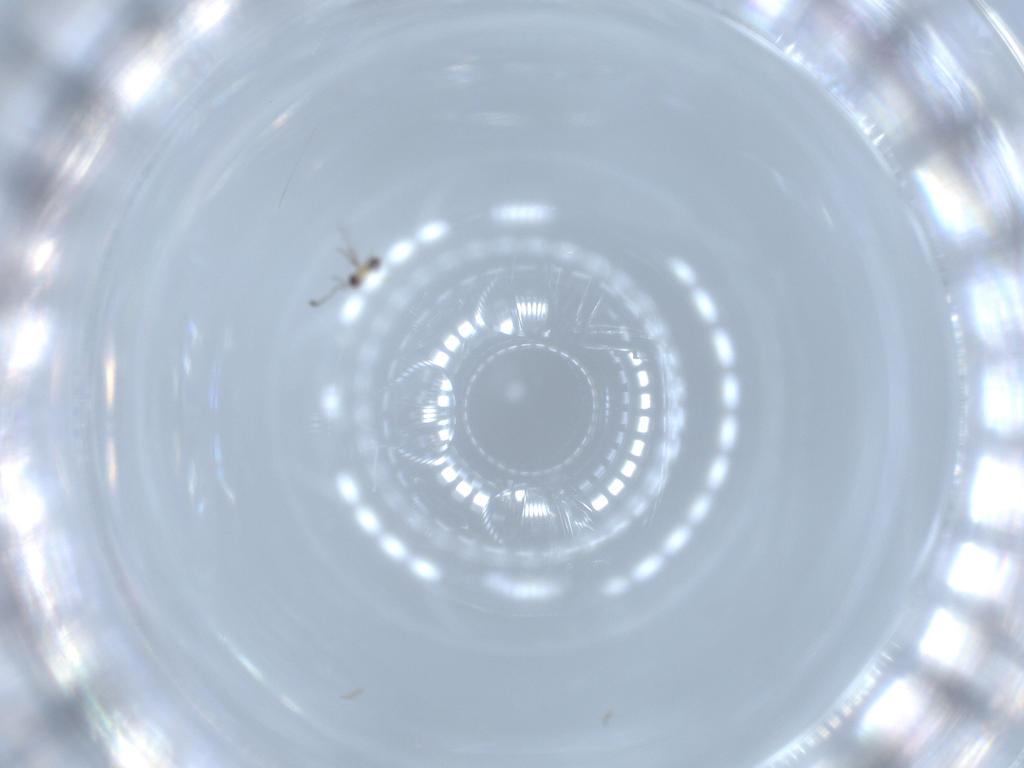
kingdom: Animalia
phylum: Arthropoda
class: Insecta
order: Hymenoptera
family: Mymaridae
